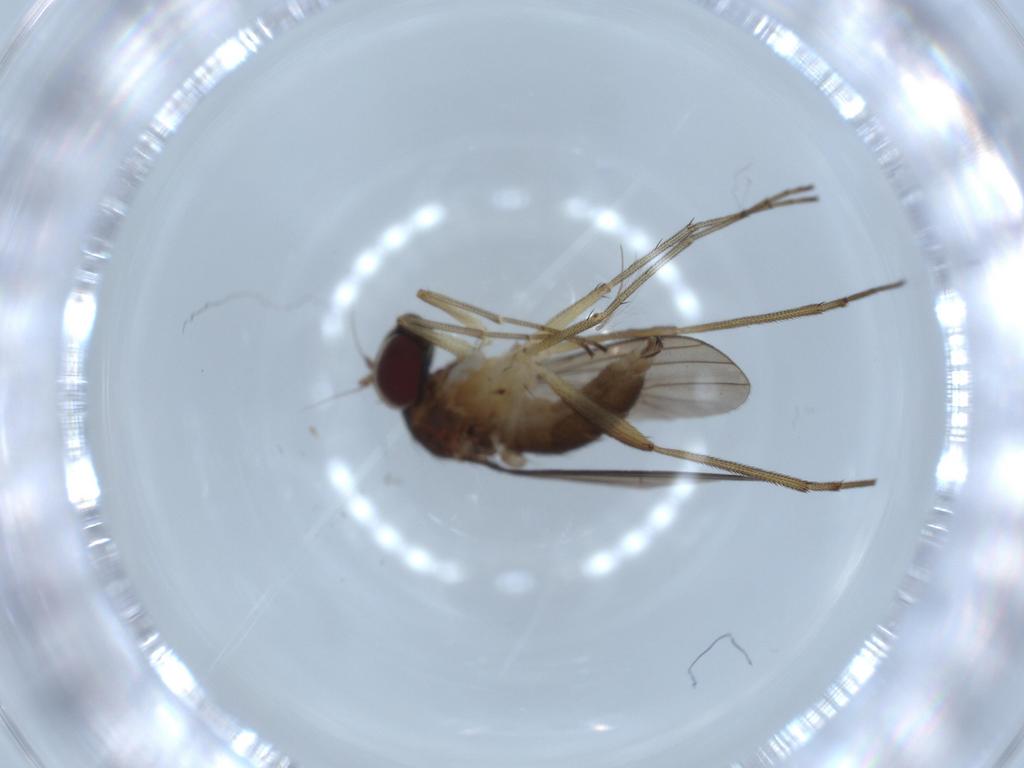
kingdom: Animalia
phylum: Arthropoda
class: Insecta
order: Diptera
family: Dolichopodidae
